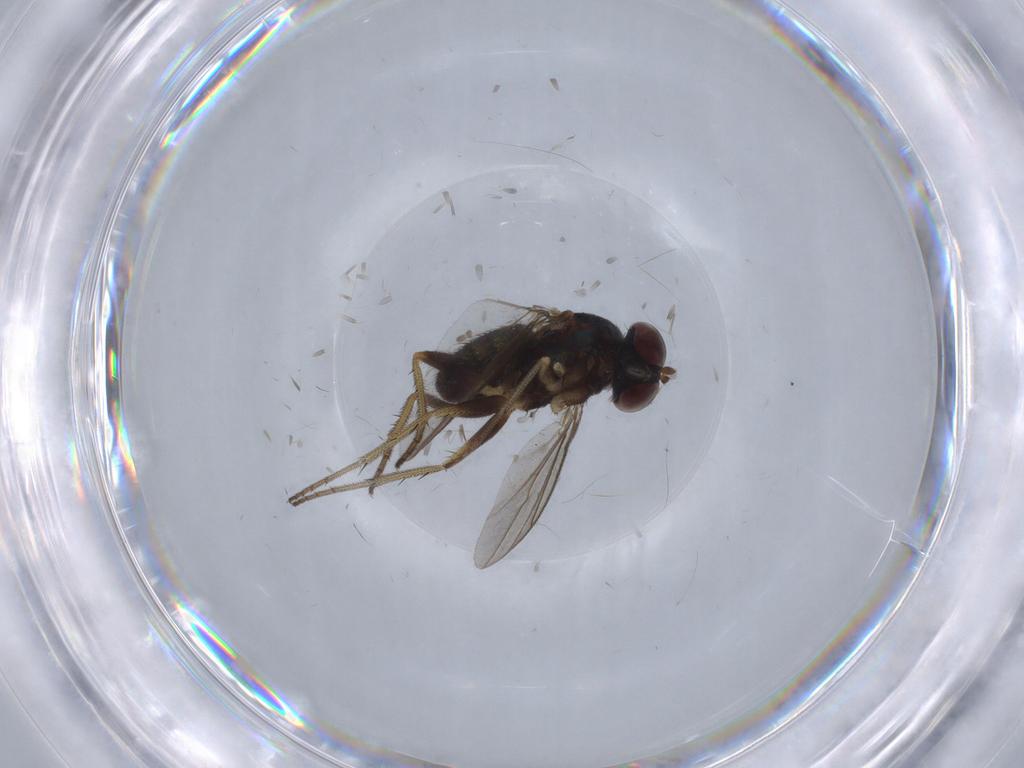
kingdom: Animalia
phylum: Arthropoda
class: Insecta
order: Diptera
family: Dolichopodidae
